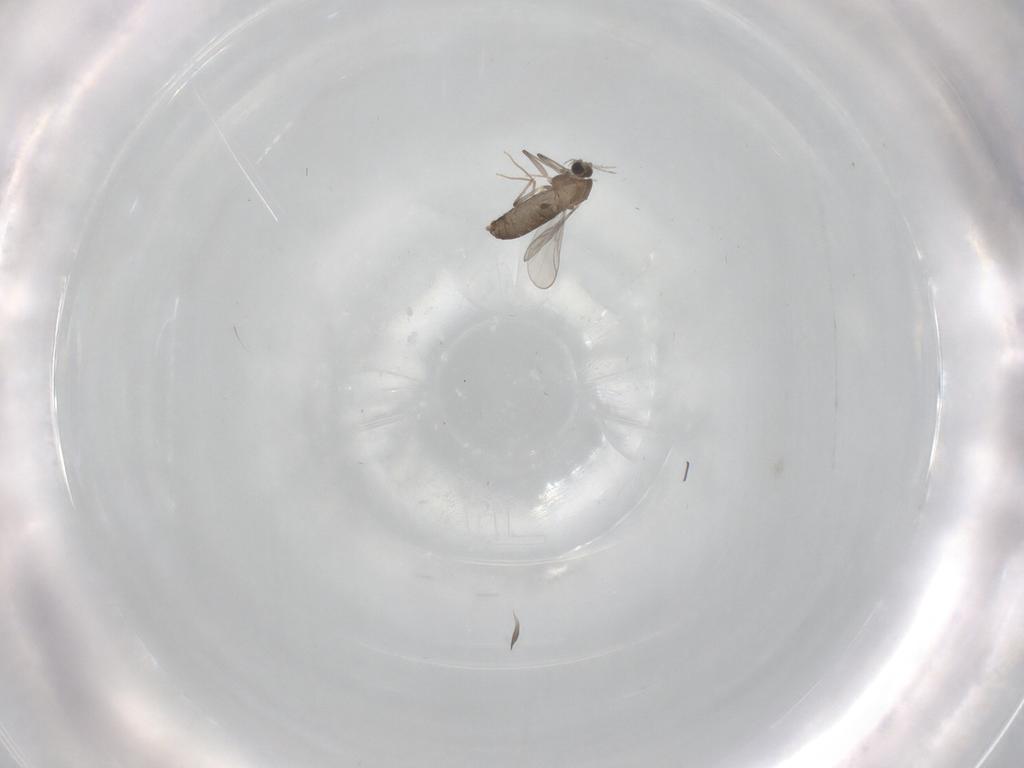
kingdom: Animalia
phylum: Arthropoda
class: Insecta
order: Diptera
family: Chironomidae
